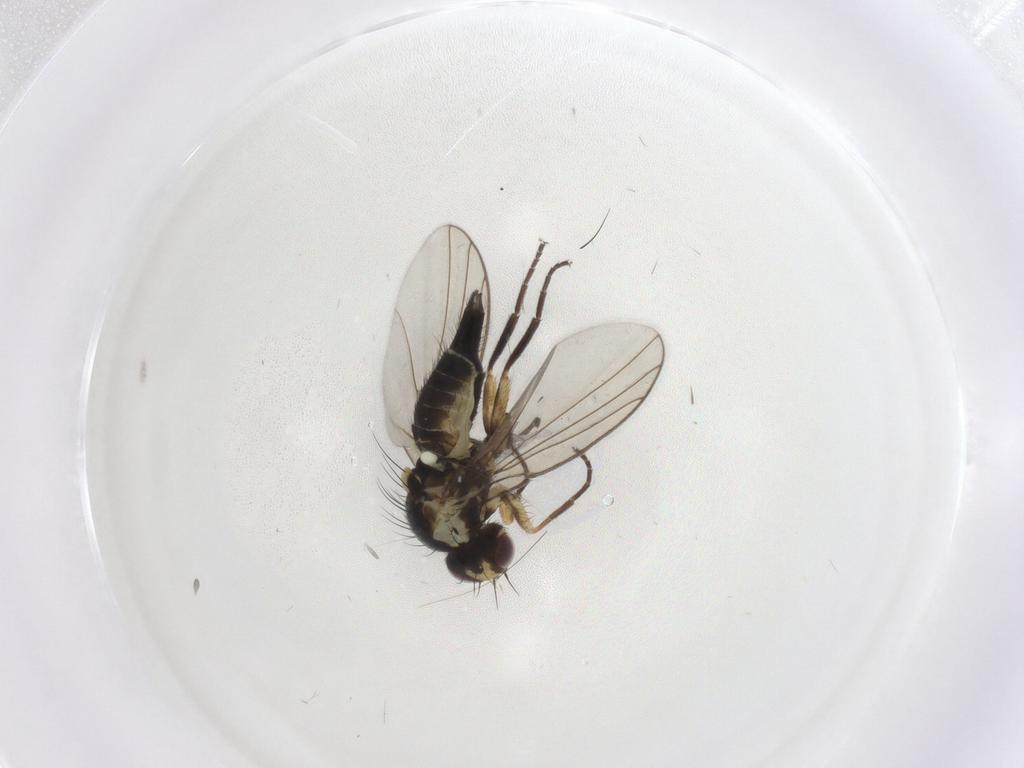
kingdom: Animalia
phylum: Arthropoda
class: Insecta
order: Diptera
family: Agromyzidae
